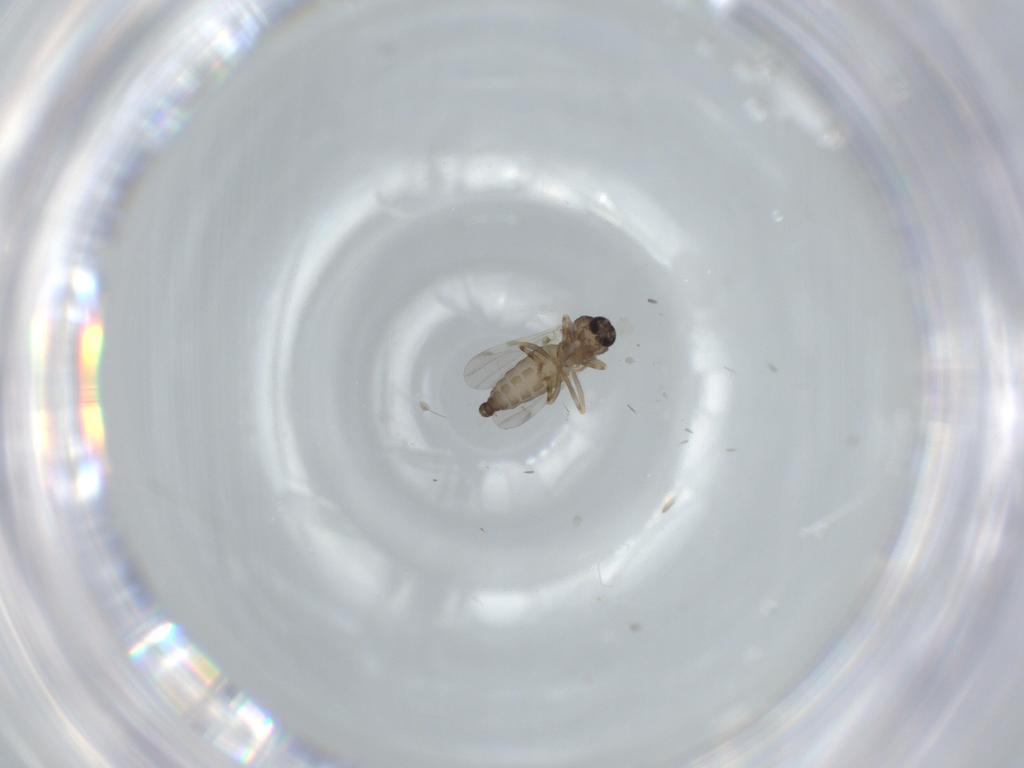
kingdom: Animalia
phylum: Arthropoda
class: Insecta
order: Diptera
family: Ceratopogonidae
